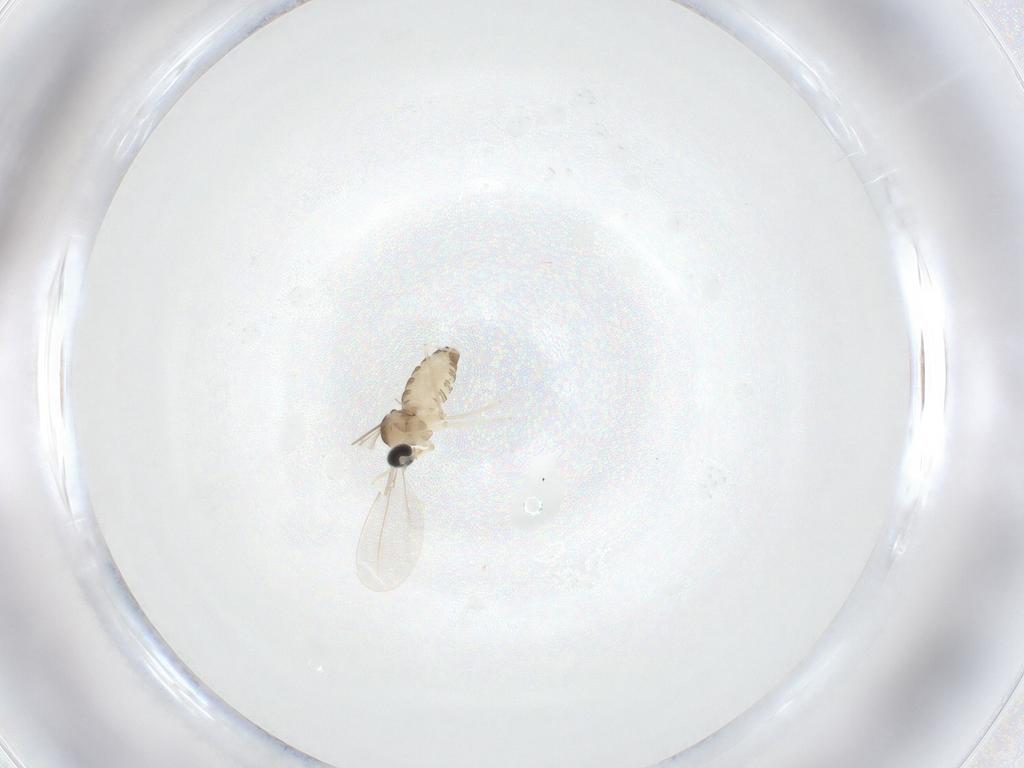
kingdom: Animalia
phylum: Arthropoda
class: Insecta
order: Diptera
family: Cecidomyiidae
